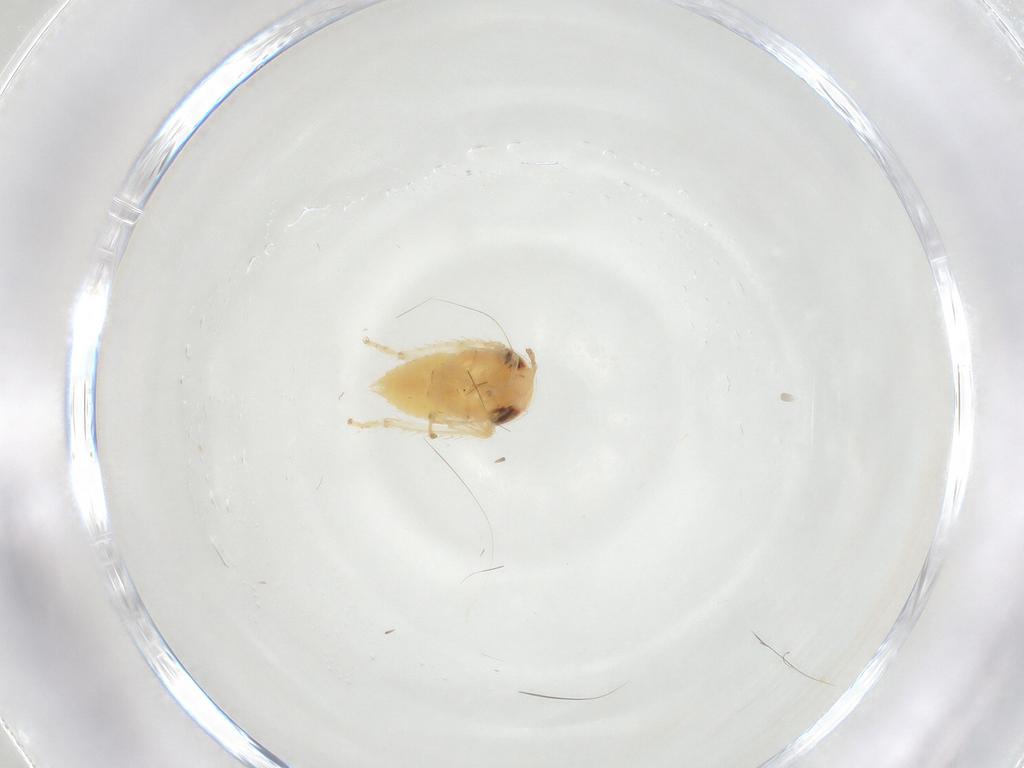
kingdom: Animalia
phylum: Arthropoda
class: Insecta
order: Hemiptera
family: Cicadellidae
